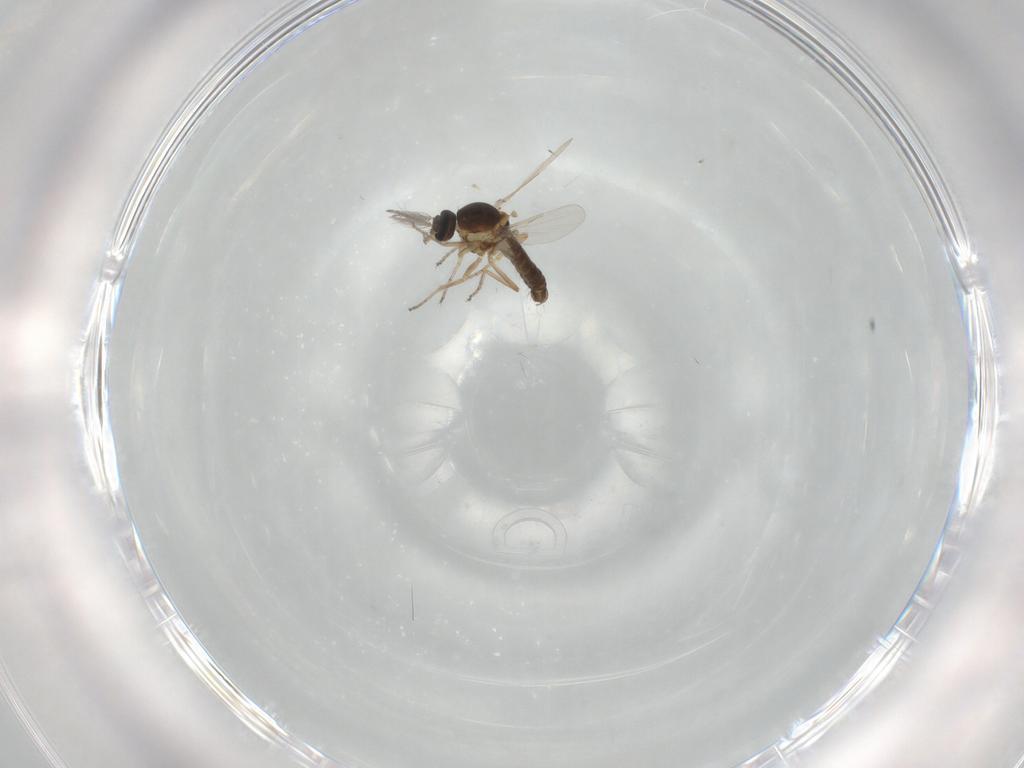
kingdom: Animalia
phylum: Arthropoda
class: Insecta
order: Diptera
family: Ceratopogonidae
